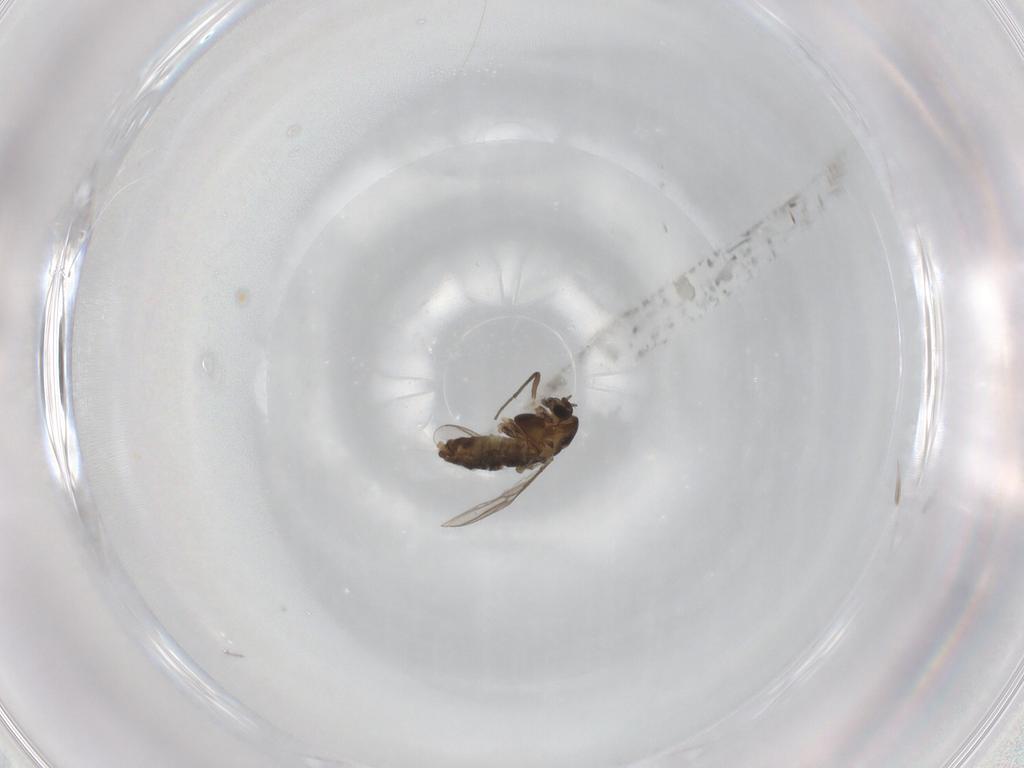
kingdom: Animalia
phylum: Arthropoda
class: Insecta
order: Diptera
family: Chironomidae
